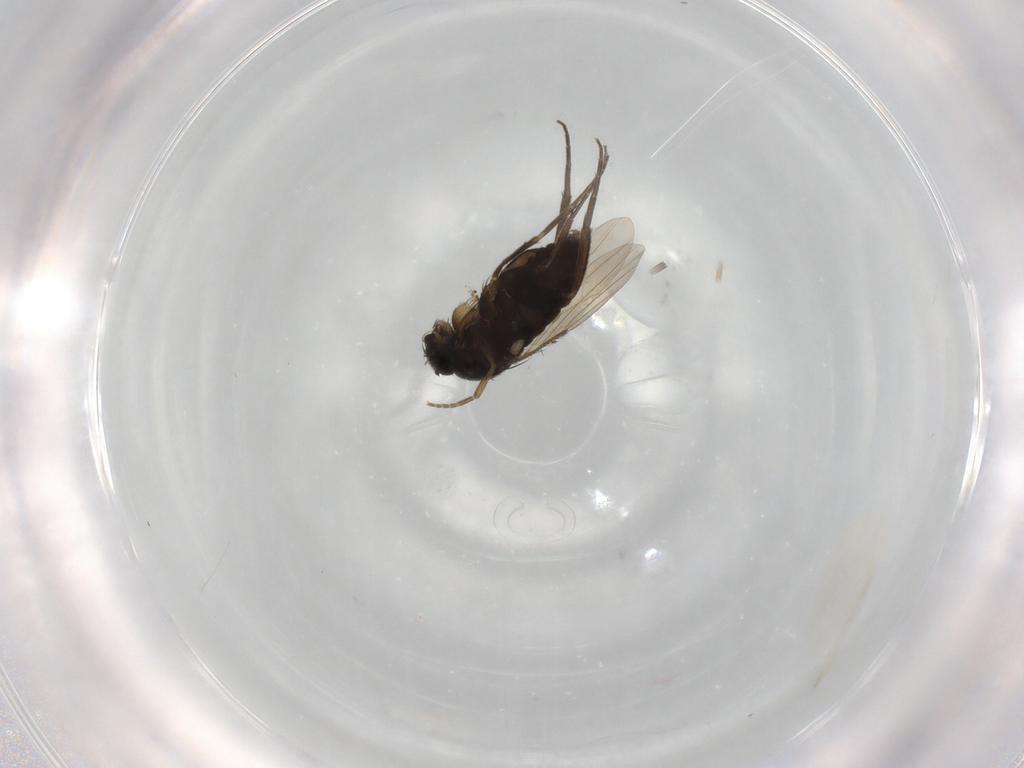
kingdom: Animalia
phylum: Arthropoda
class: Insecta
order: Diptera
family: Phoridae
